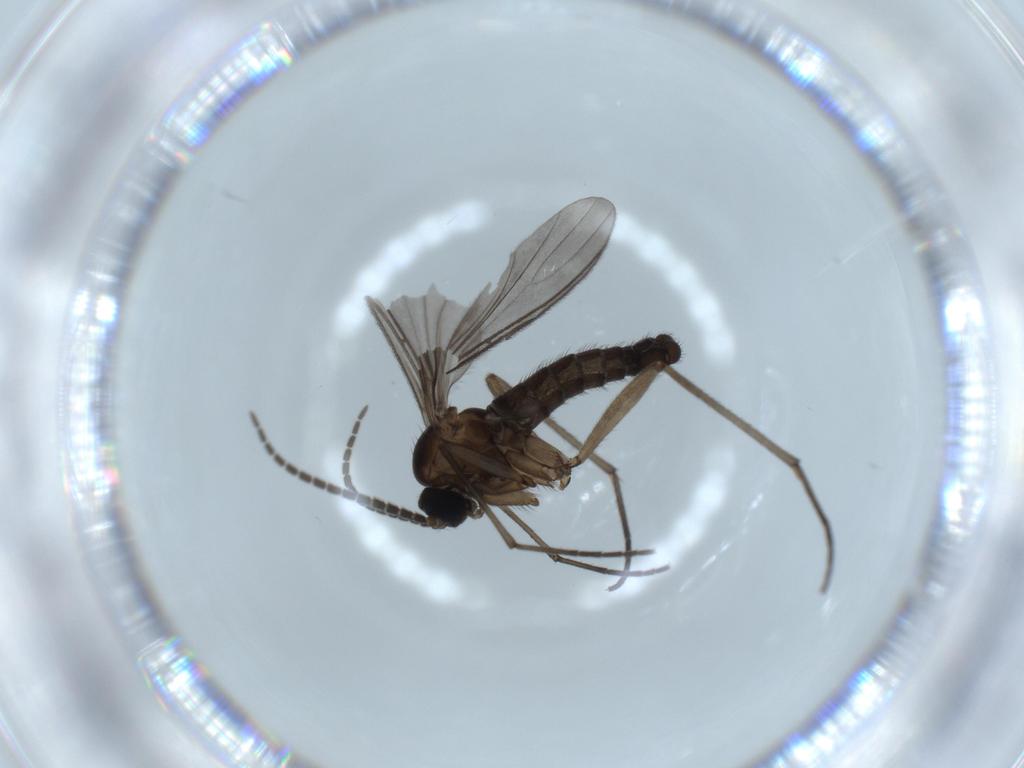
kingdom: Animalia
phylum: Arthropoda
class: Insecta
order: Diptera
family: Sciaridae
